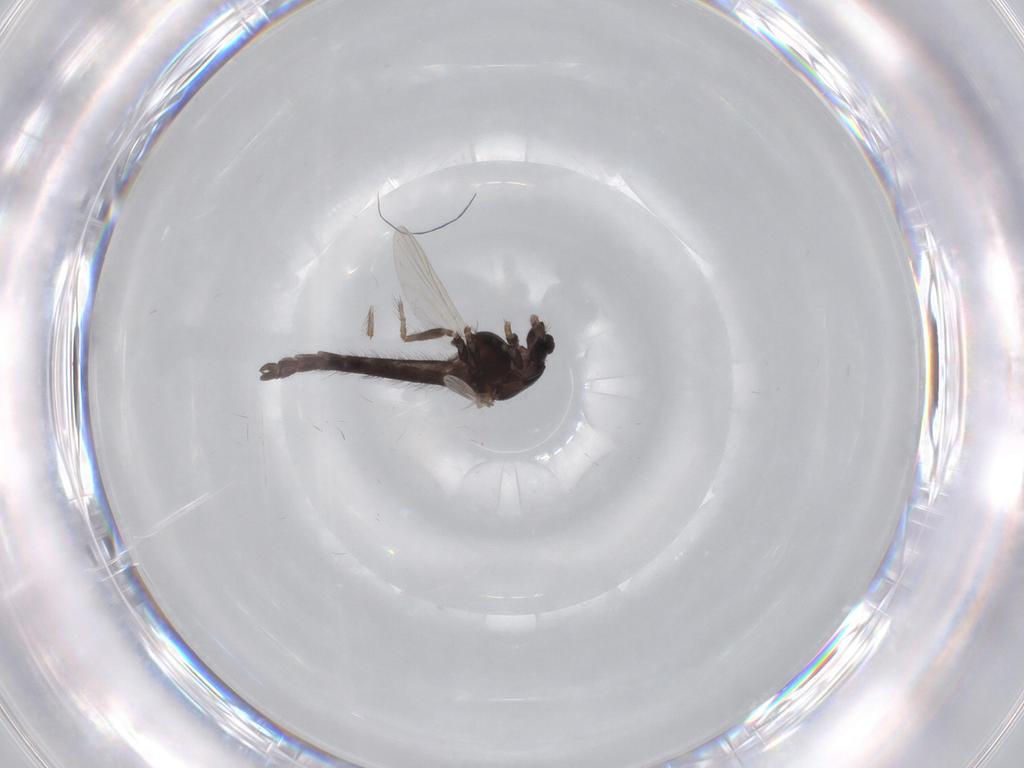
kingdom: Animalia
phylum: Arthropoda
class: Insecta
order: Diptera
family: Chironomidae
